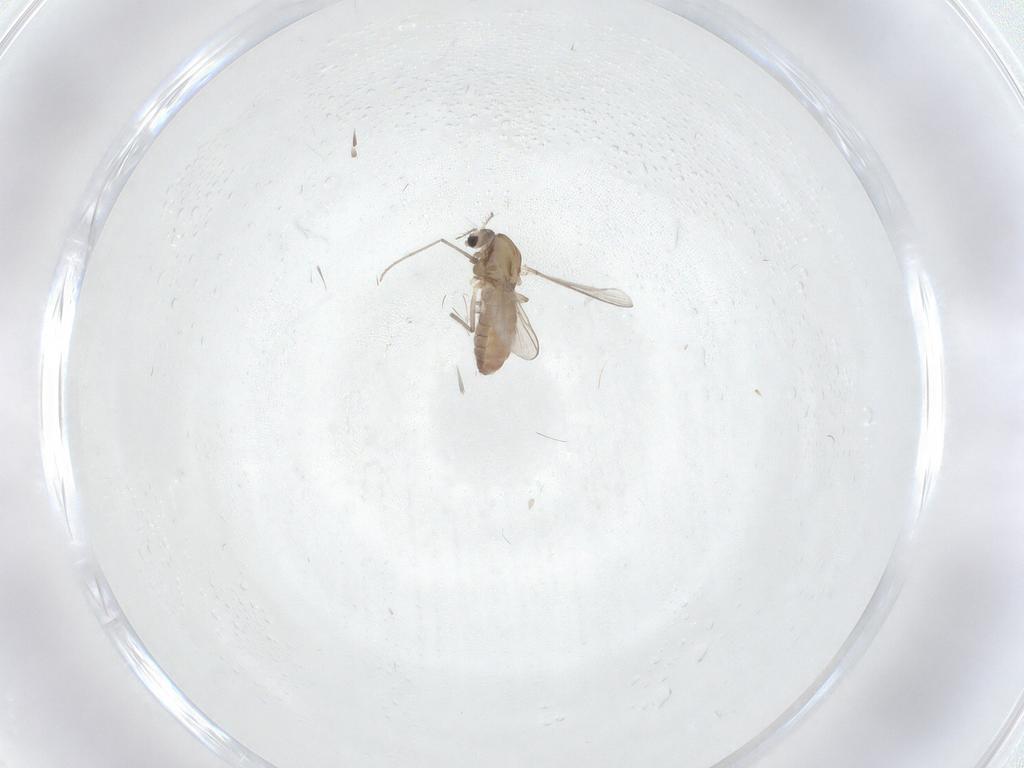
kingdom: Animalia
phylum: Arthropoda
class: Insecta
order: Diptera
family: Chironomidae
